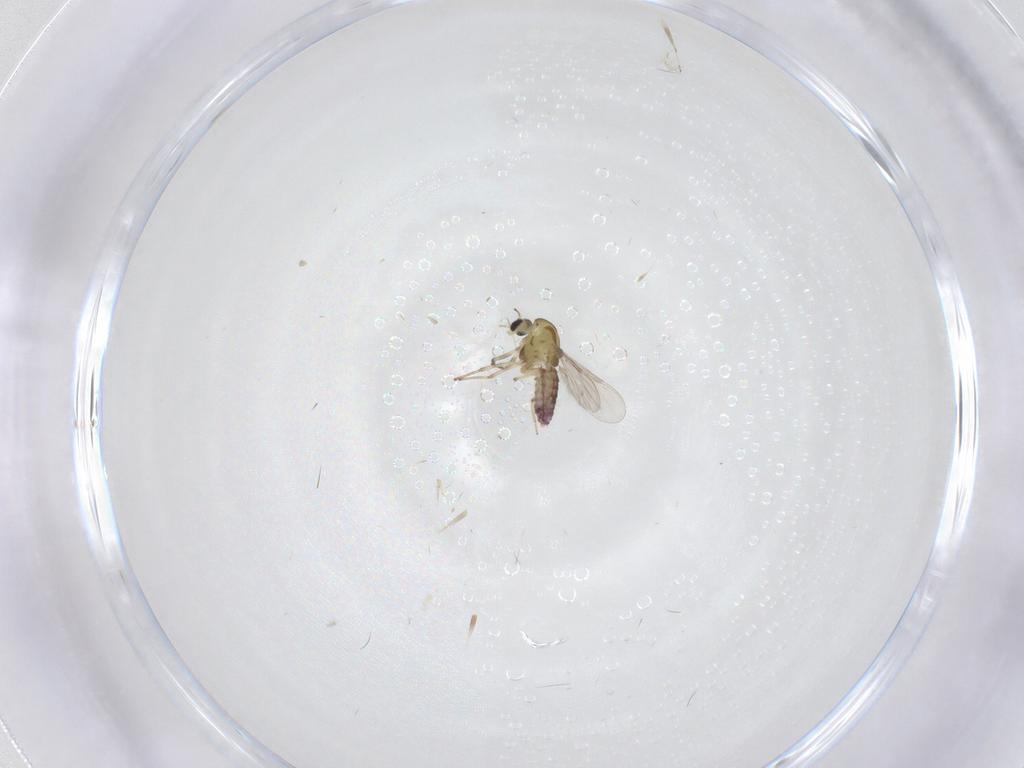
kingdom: Animalia
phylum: Arthropoda
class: Insecta
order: Diptera
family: Chironomidae
